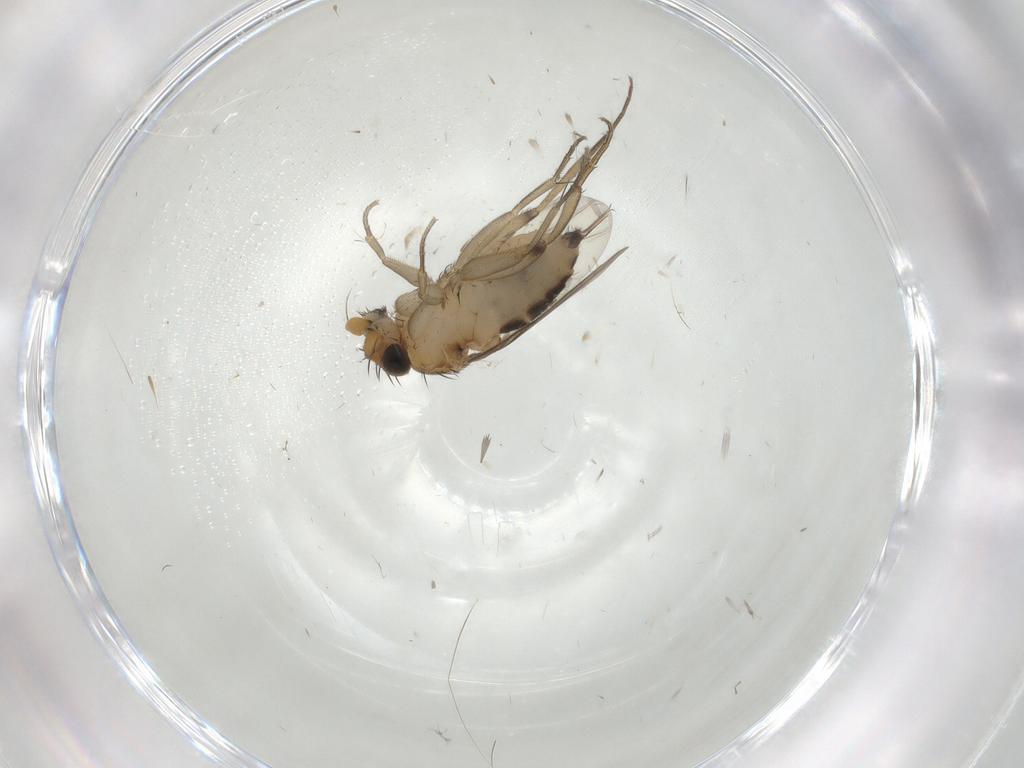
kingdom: Animalia
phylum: Arthropoda
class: Insecta
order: Diptera
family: Phoridae
